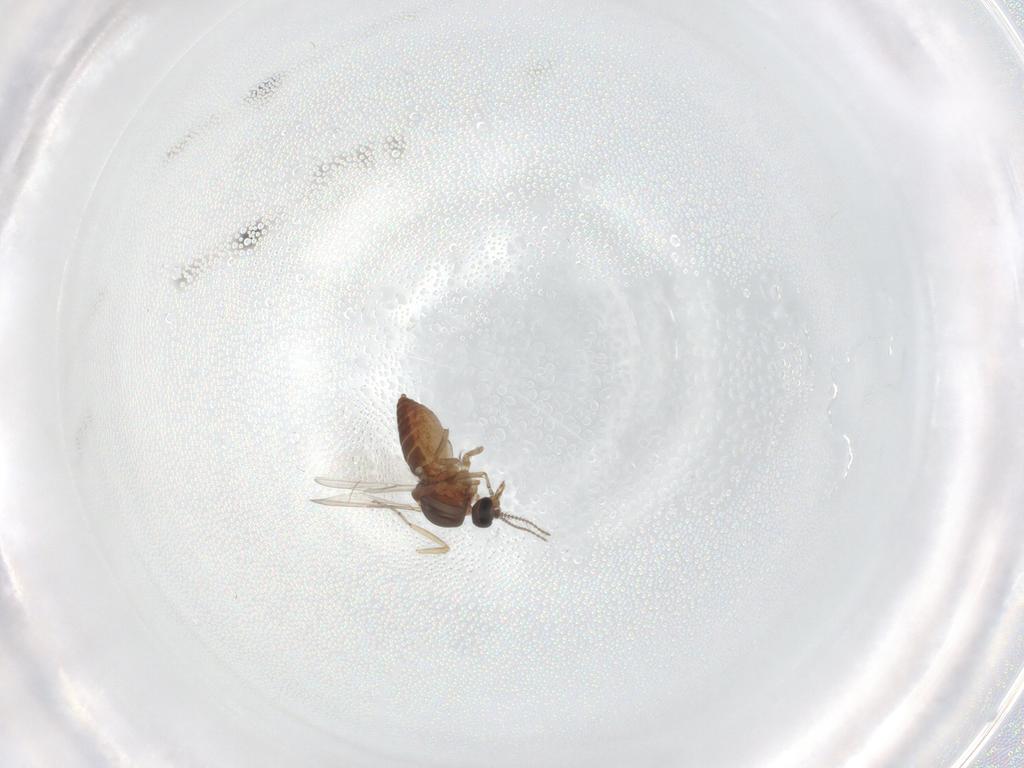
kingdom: Animalia
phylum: Arthropoda
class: Insecta
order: Diptera
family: Ceratopogonidae
